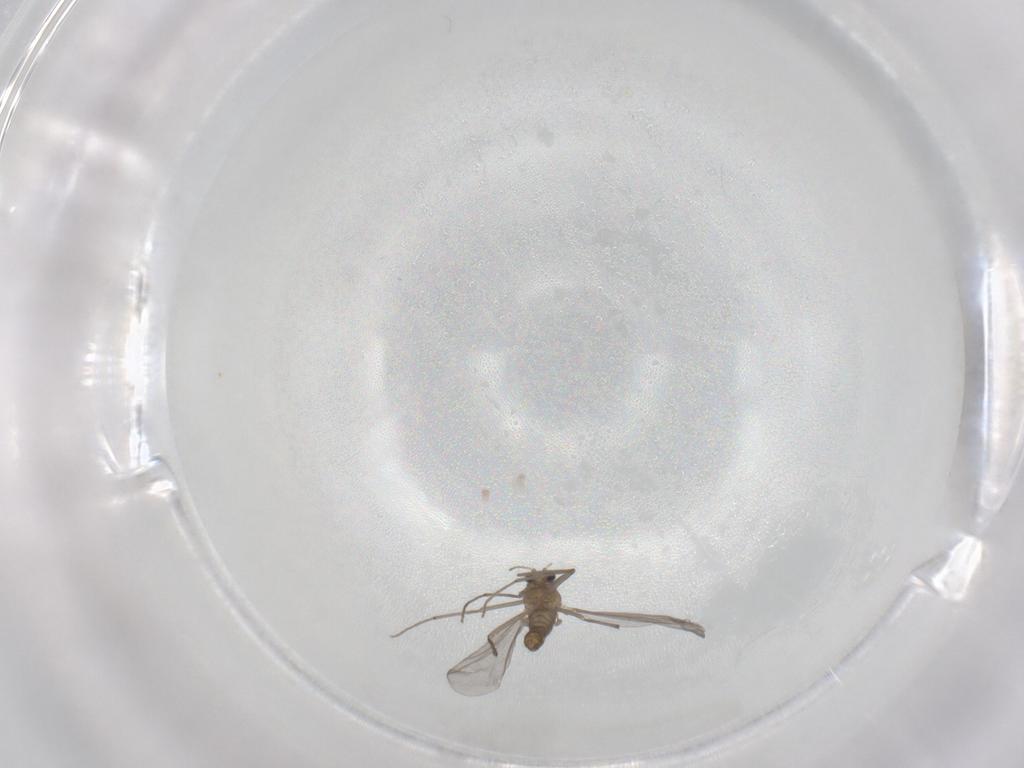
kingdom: Animalia
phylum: Arthropoda
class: Insecta
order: Diptera
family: Chironomidae
